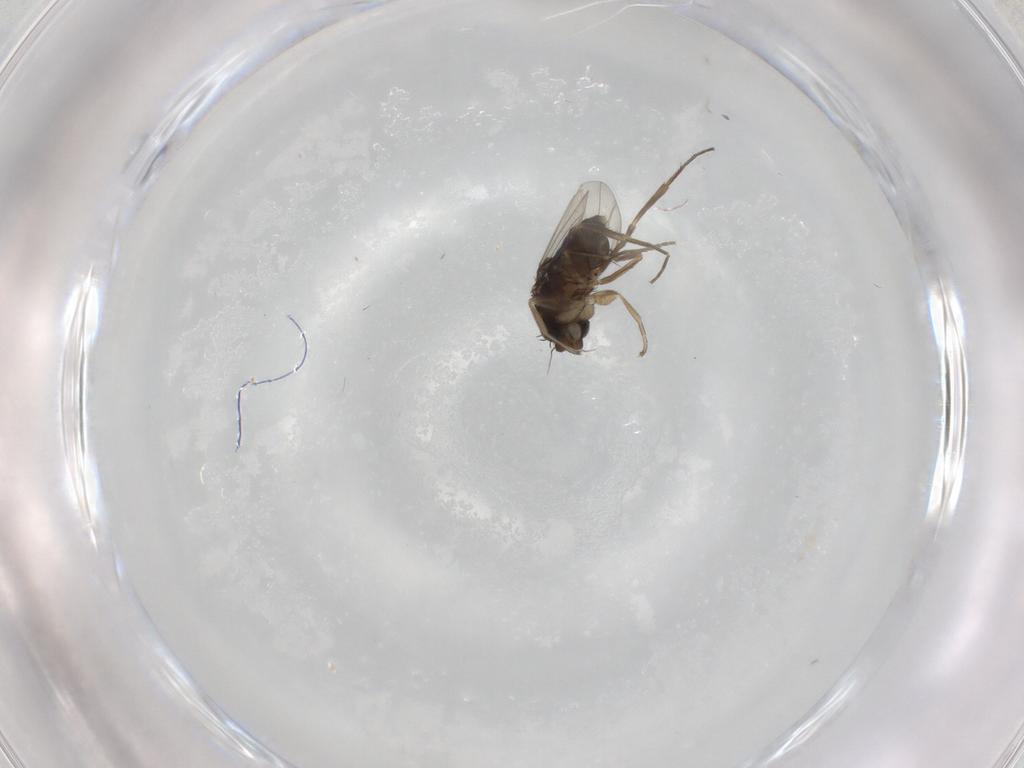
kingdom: Animalia
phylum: Arthropoda
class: Insecta
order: Diptera
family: Phoridae
